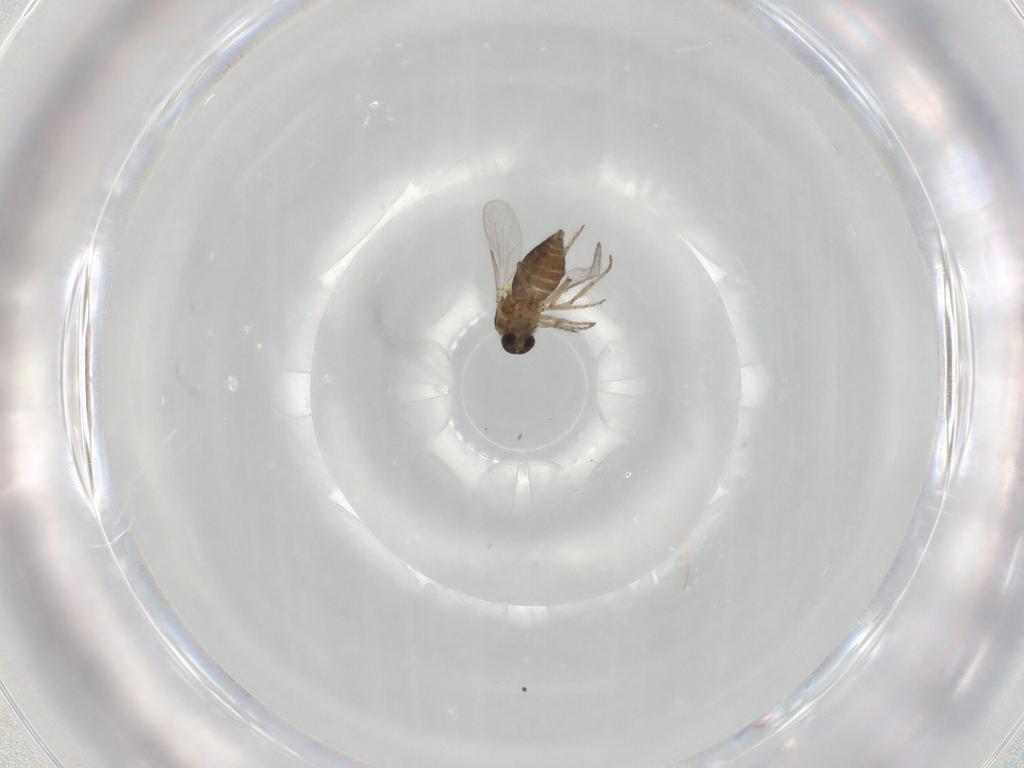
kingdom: Animalia
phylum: Arthropoda
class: Insecta
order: Diptera
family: Ceratopogonidae
